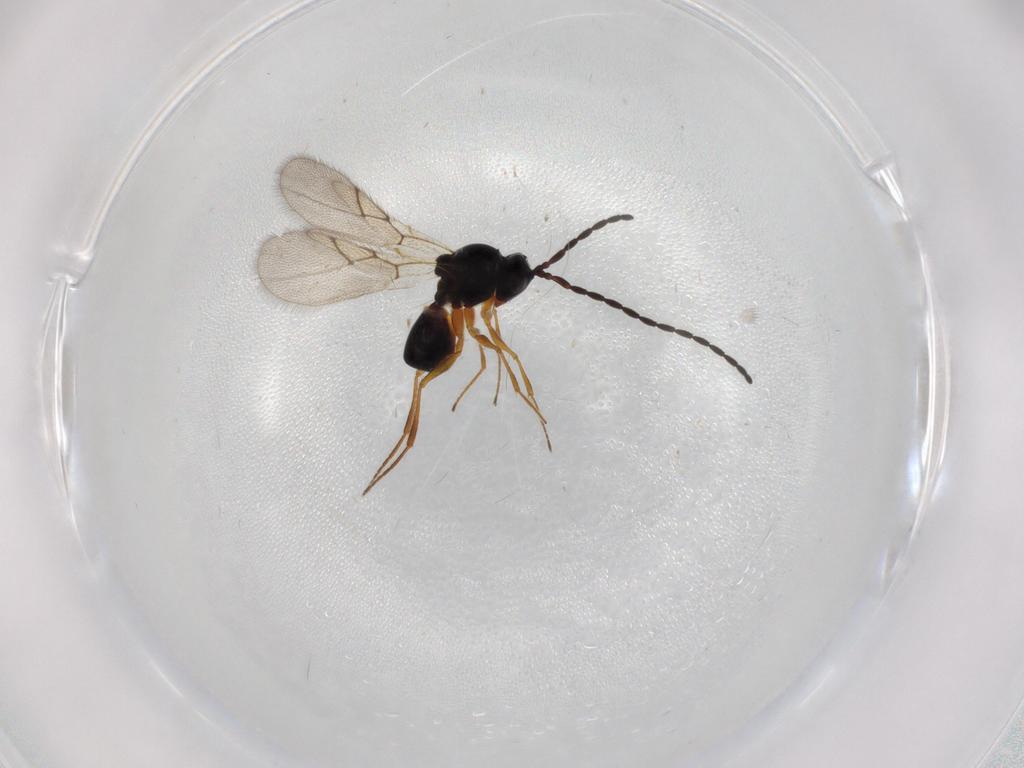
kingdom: Animalia
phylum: Arthropoda
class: Insecta
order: Hymenoptera
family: Figitidae
